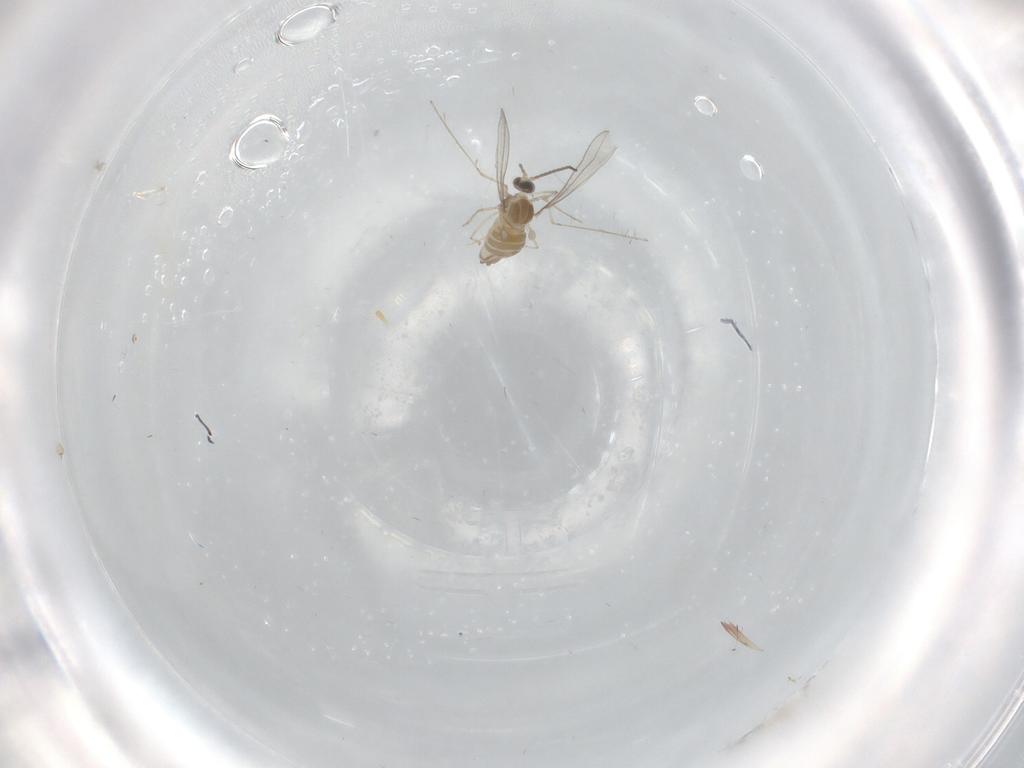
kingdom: Animalia
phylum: Arthropoda
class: Insecta
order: Diptera
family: Cecidomyiidae
